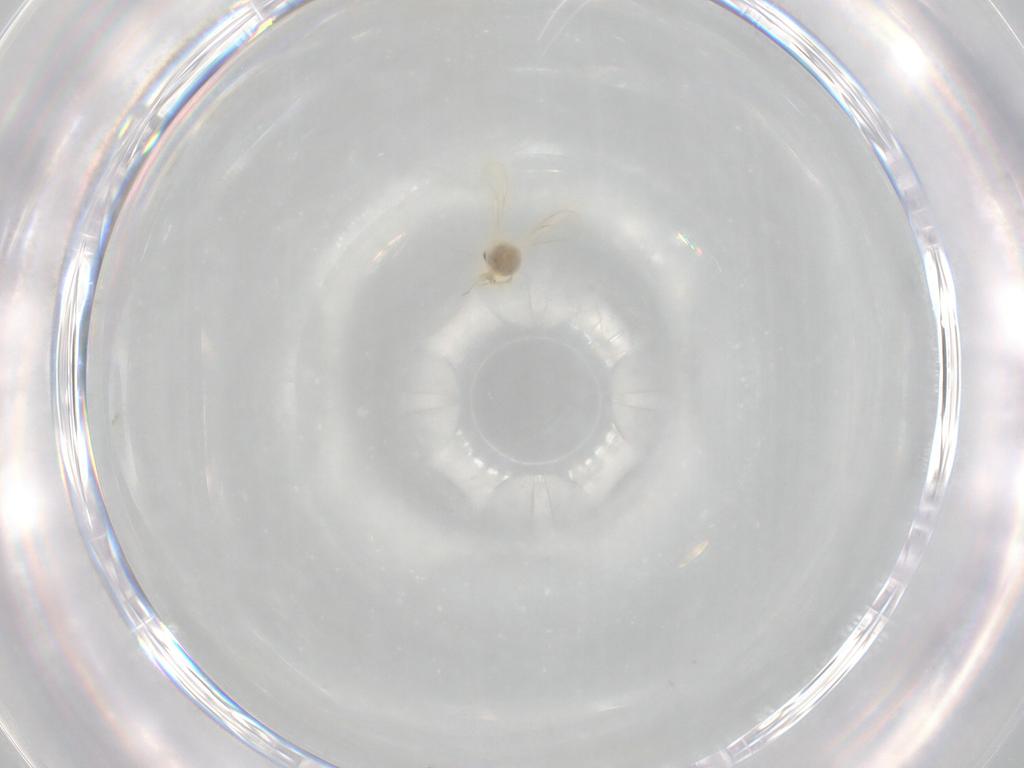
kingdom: Animalia
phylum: Arthropoda
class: Insecta
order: Hemiptera
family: Aleyrodidae
